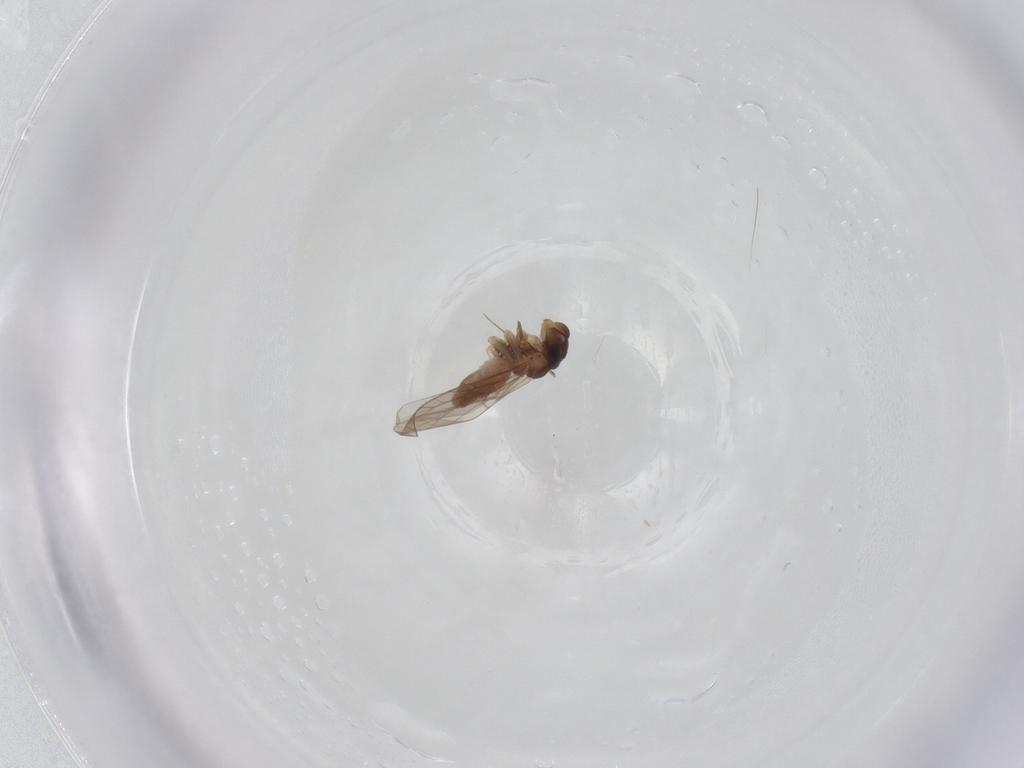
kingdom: Animalia
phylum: Arthropoda
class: Insecta
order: Psocodea
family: Lepidopsocidae
